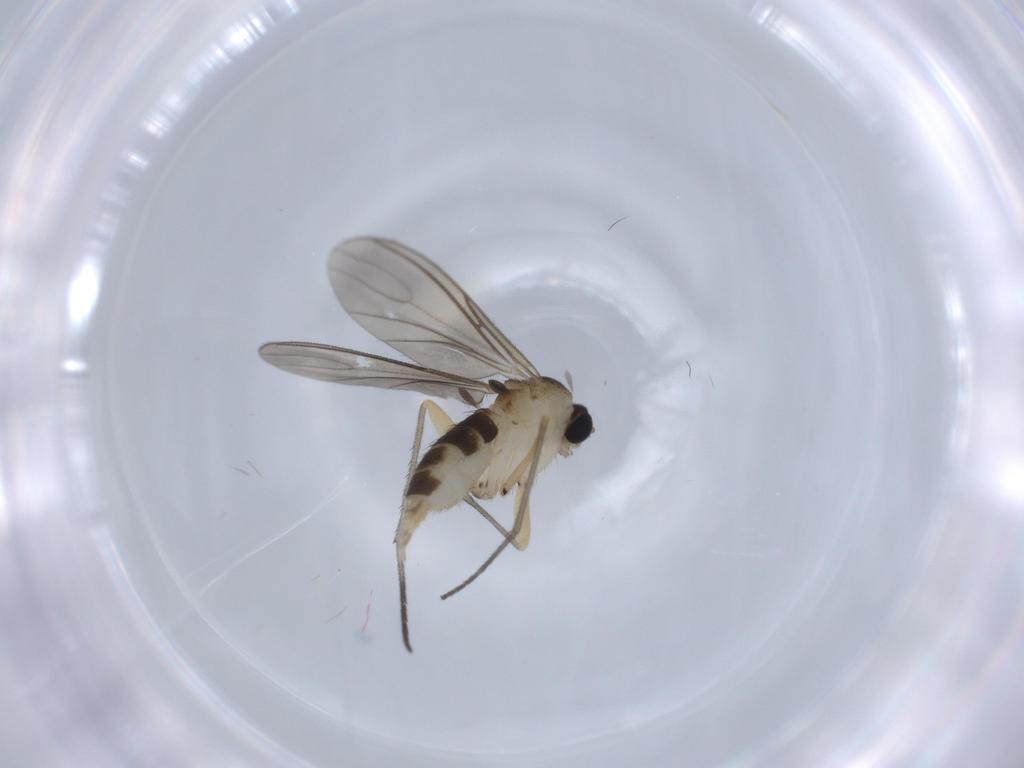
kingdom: Animalia
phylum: Arthropoda
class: Insecta
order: Diptera
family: Sciaridae
